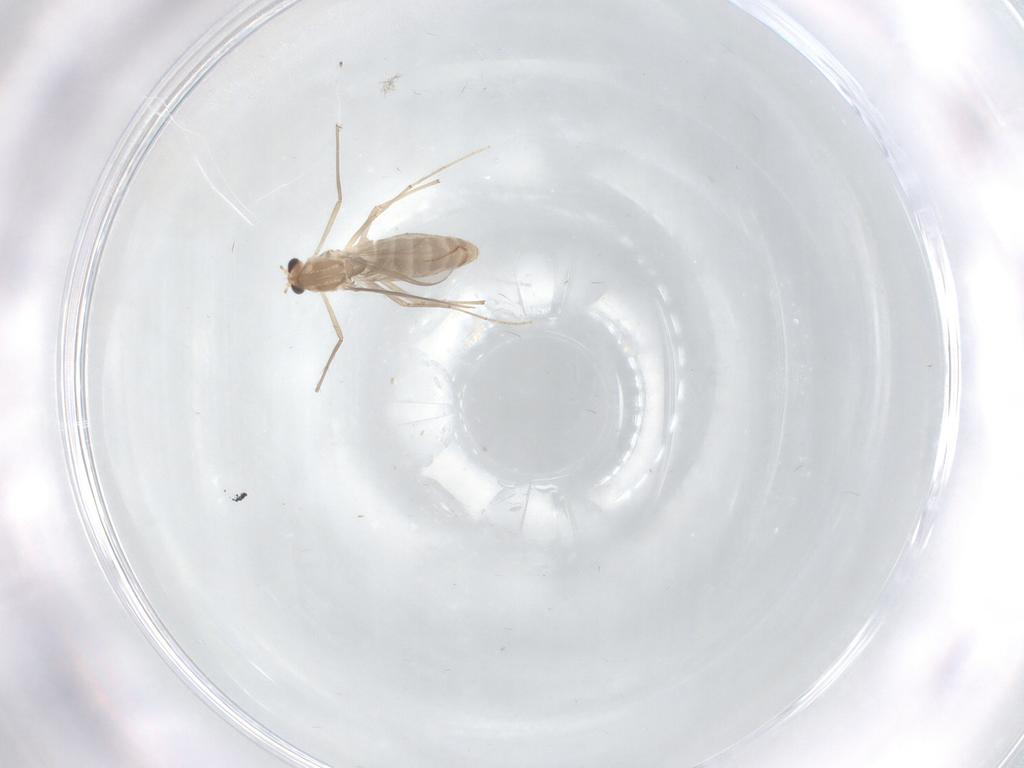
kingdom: Animalia
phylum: Arthropoda
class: Insecta
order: Diptera
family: Chironomidae
